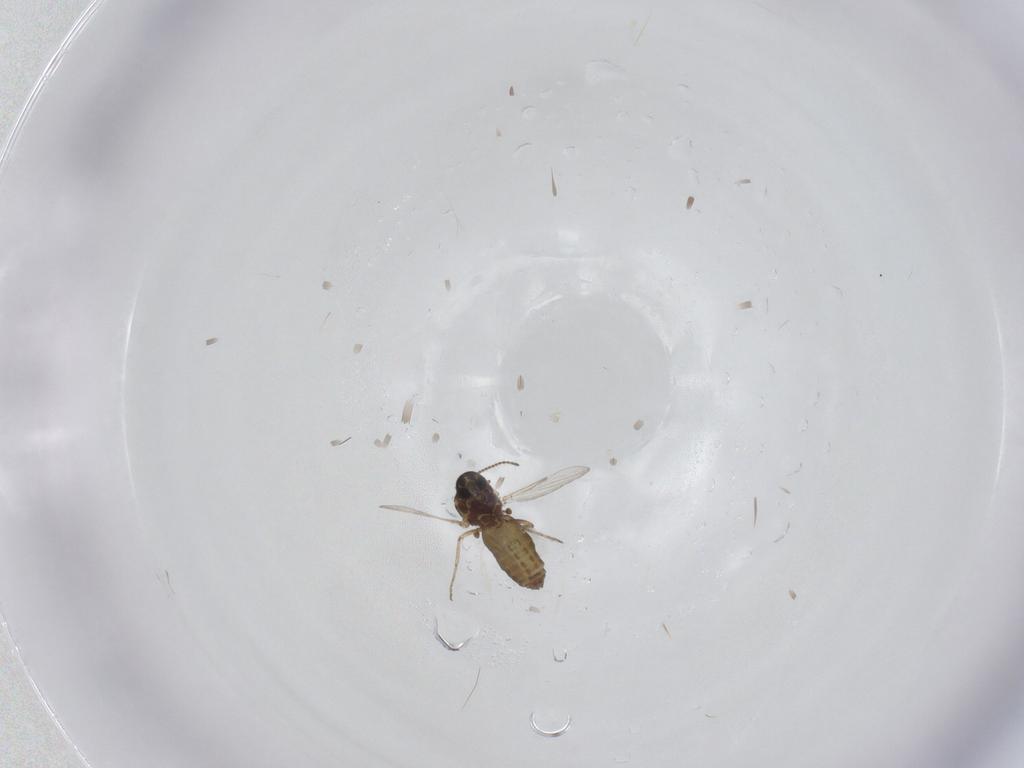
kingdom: Animalia
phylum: Arthropoda
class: Insecta
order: Diptera
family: Ceratopogonidae
